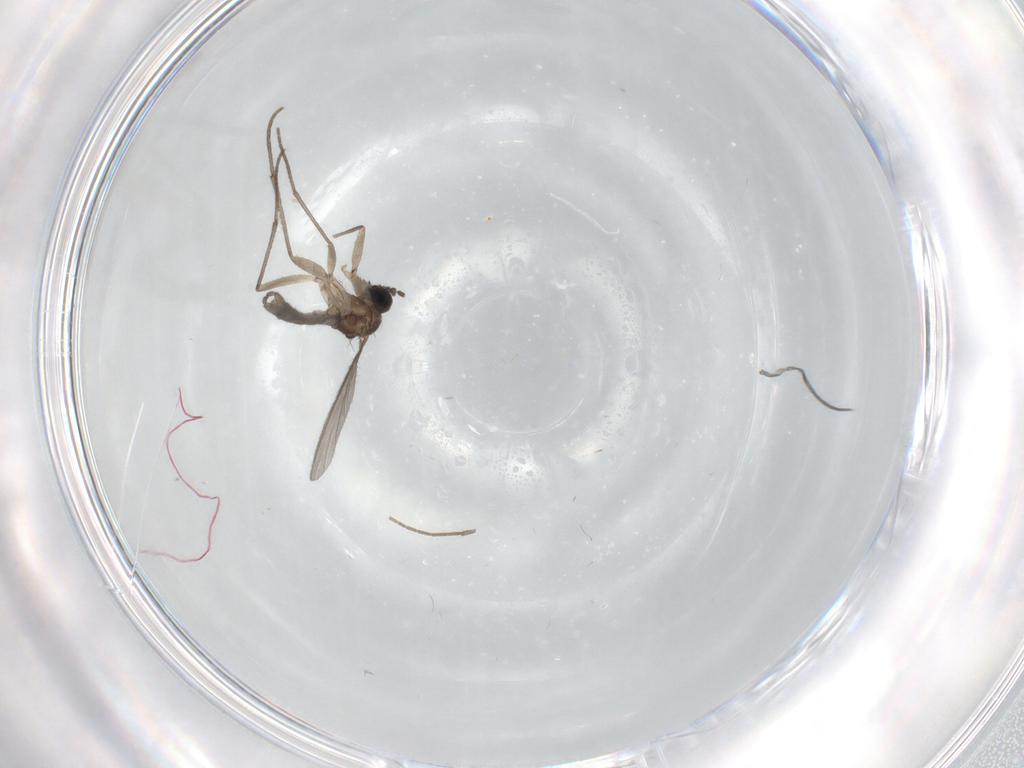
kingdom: Animalia
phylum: Arthropoda
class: Insecta
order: Diptera
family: Sciaridae
